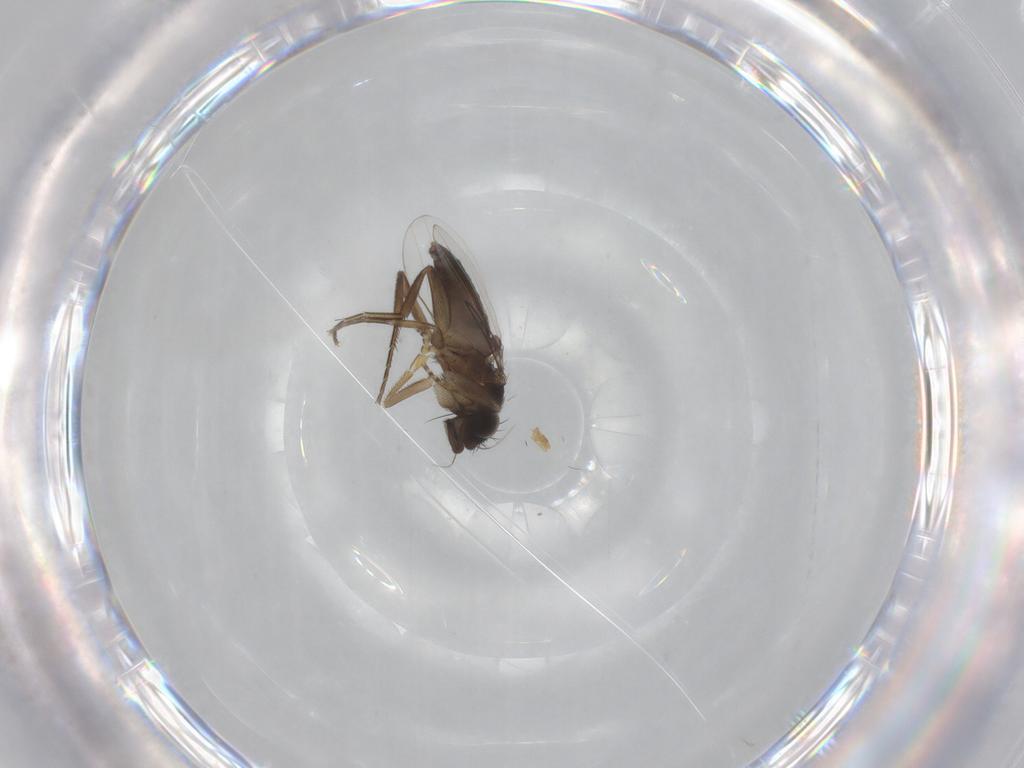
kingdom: Animalia
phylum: Arthropoda
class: Insecta
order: Diptera
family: Phoridae
